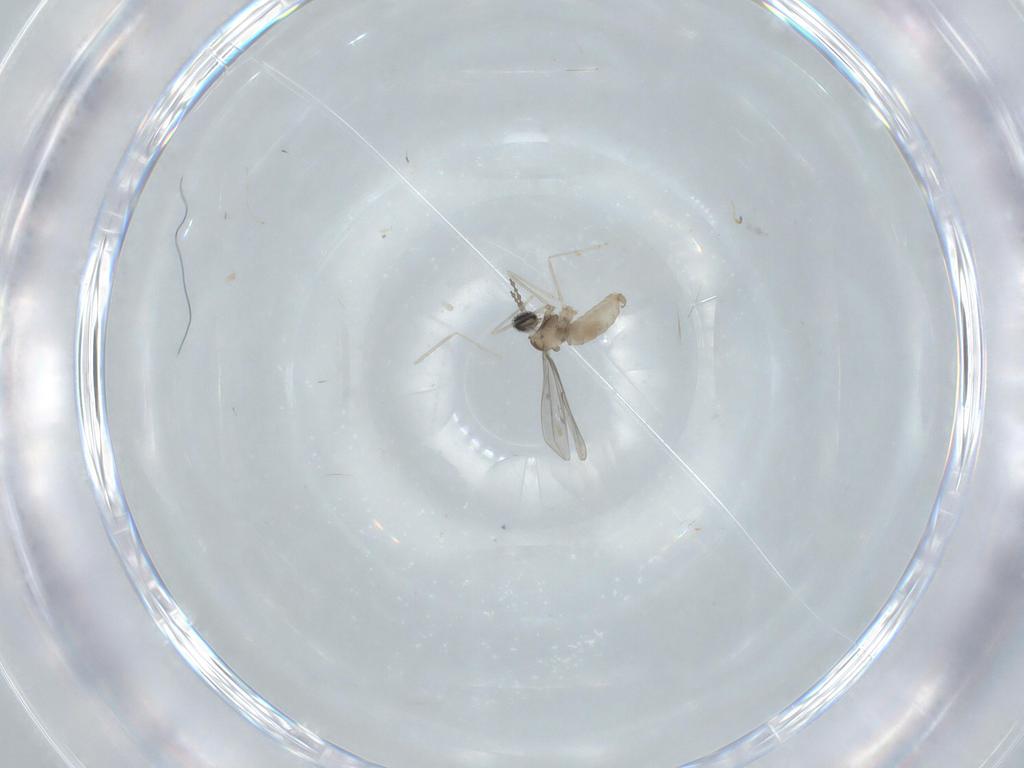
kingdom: Animalia
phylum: Arthropoda
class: Insecta
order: Diptera
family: Cecidomyiidae
